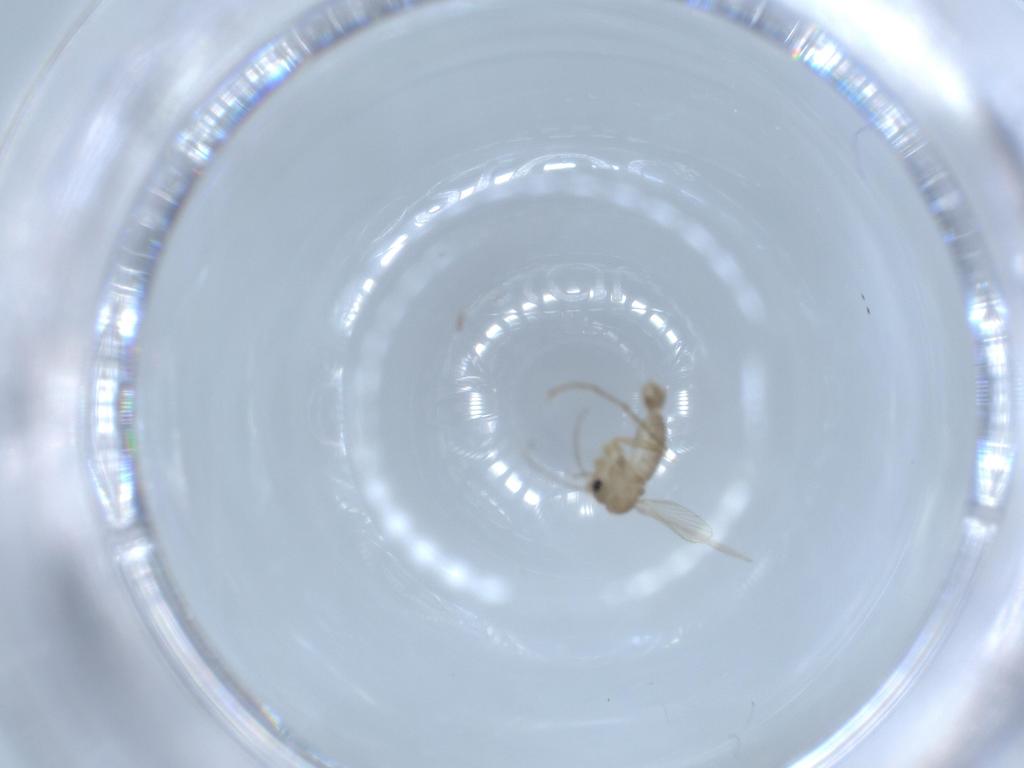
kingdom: Animalia
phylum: Arthropoda
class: Insecta
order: Diptera
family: Psychodidae
